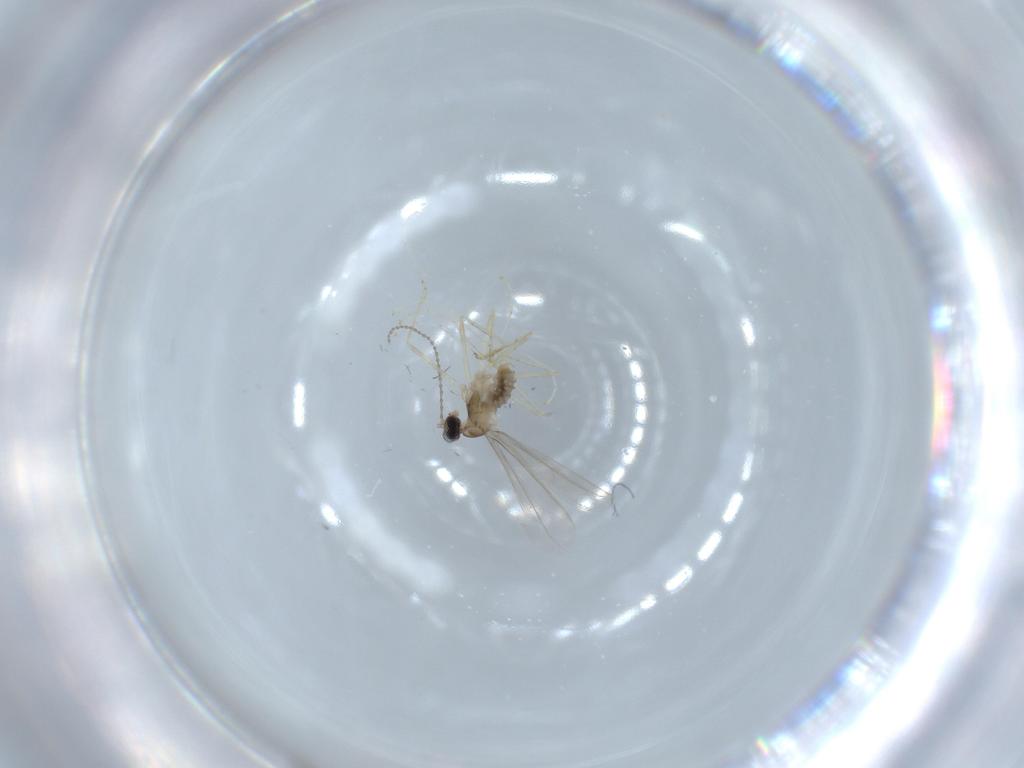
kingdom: Animalia
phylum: Arthropoda
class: Insecta
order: Diptera
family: Cecidomyiidae
